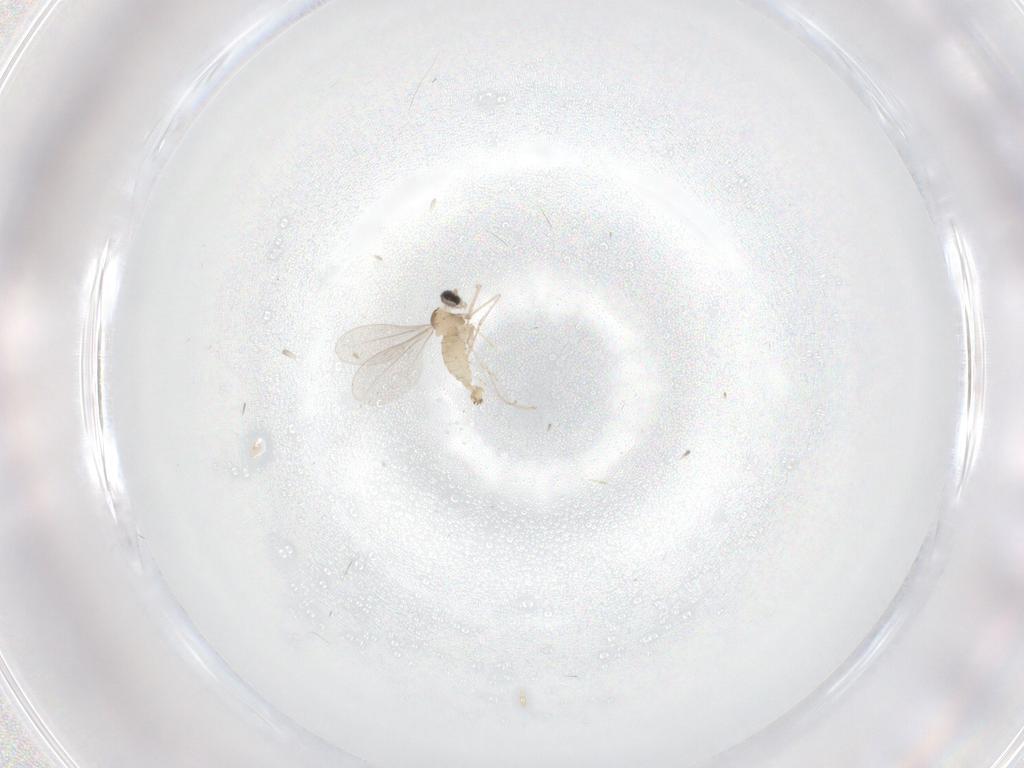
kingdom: Animalia
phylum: Arthropoda
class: Insecta
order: Diptera
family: Cecidomyiidae
